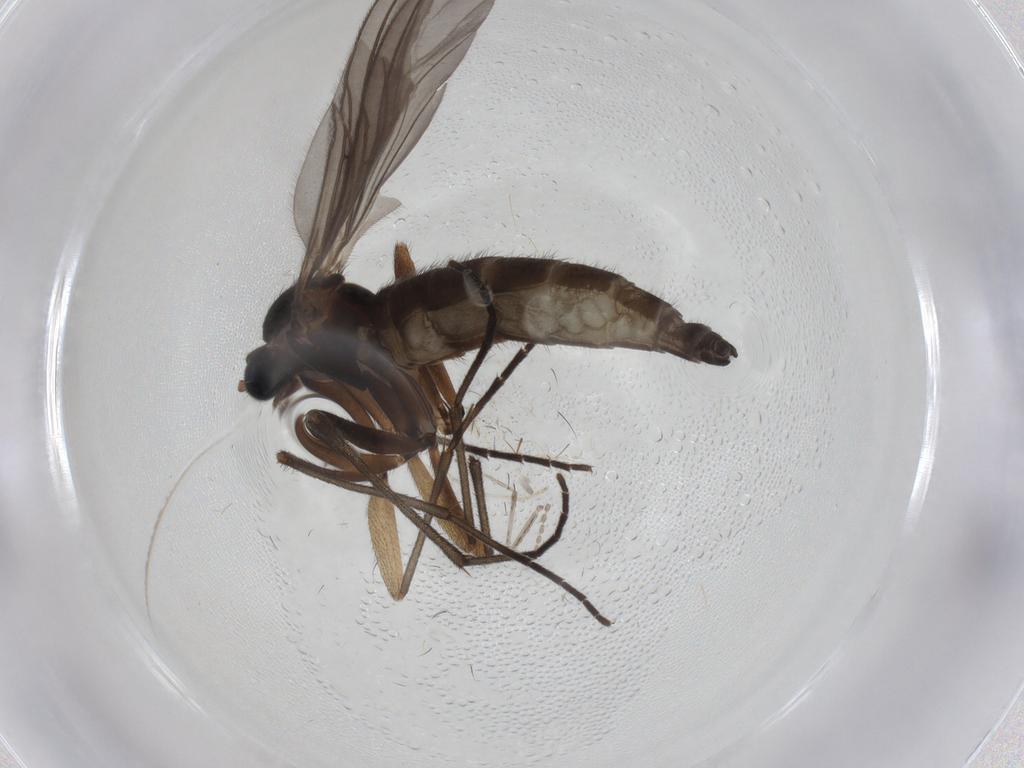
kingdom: Animalia
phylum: Arthropoda
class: Insecta
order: Diptera
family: Cecidomyiidae
